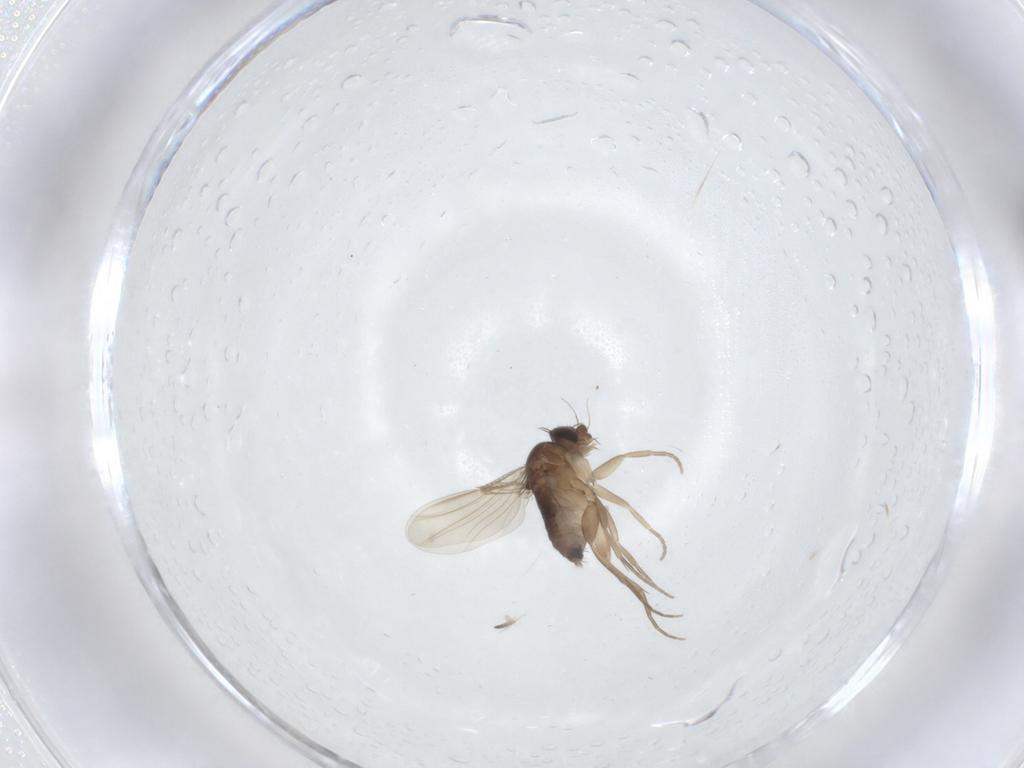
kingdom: Animalia
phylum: Arthropoda
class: Insecta
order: Diptera
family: Phoridae
